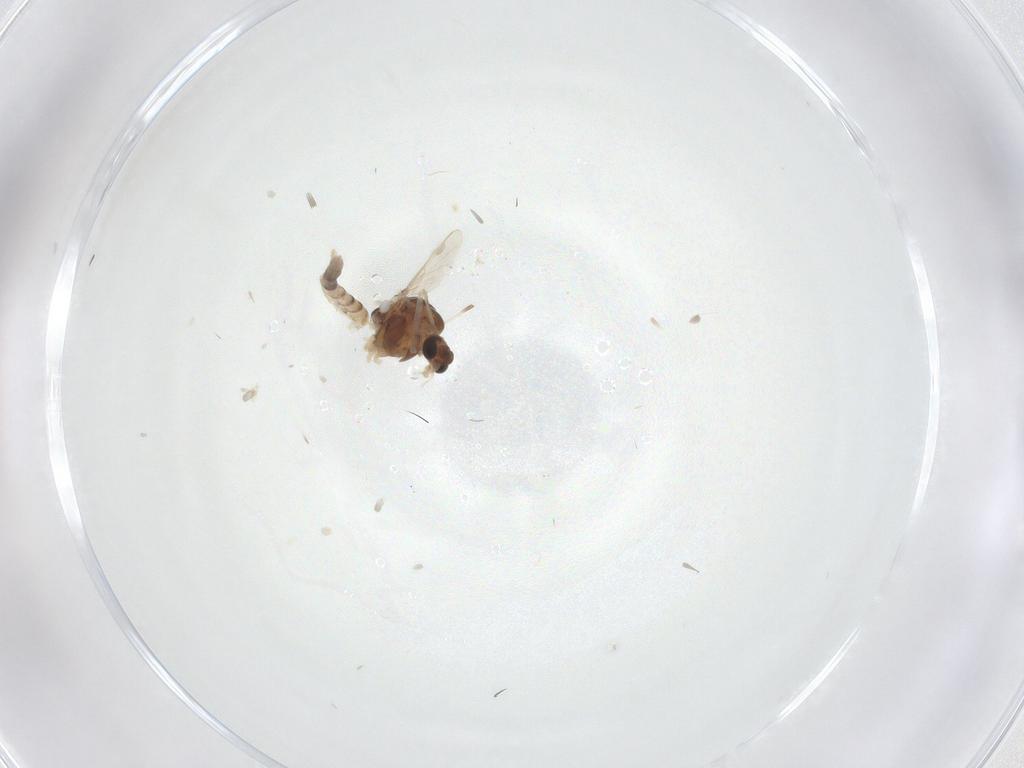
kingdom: Animalia
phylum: Arthropoda
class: Insecta
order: Diptera
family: Chironomidae
